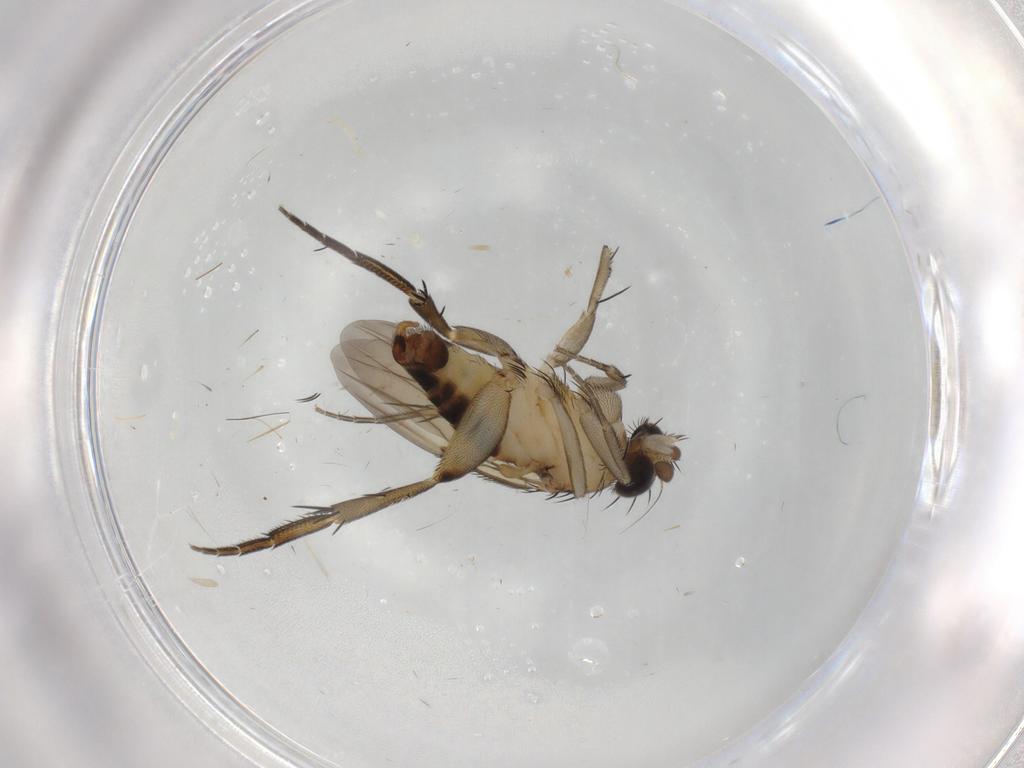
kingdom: Animalia
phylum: Arthropoda
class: Insecta
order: Diptera
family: Phoridae
